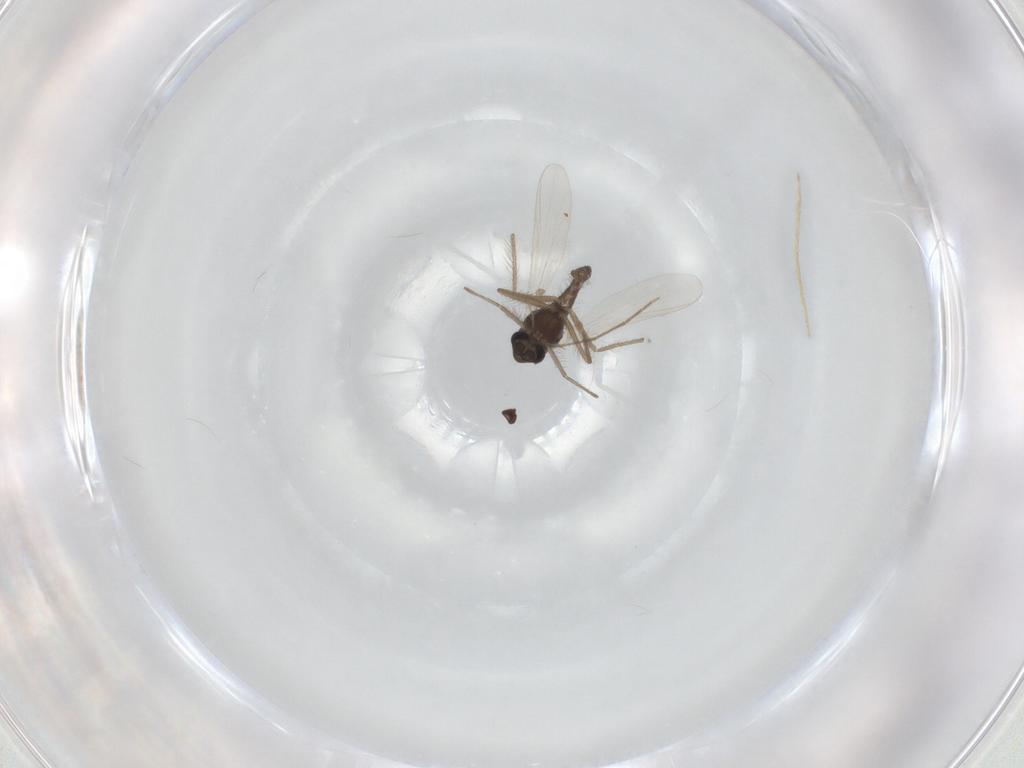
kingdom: Animalia
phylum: Arthropoda
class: Insecta
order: Diptera
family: Chironomidae
